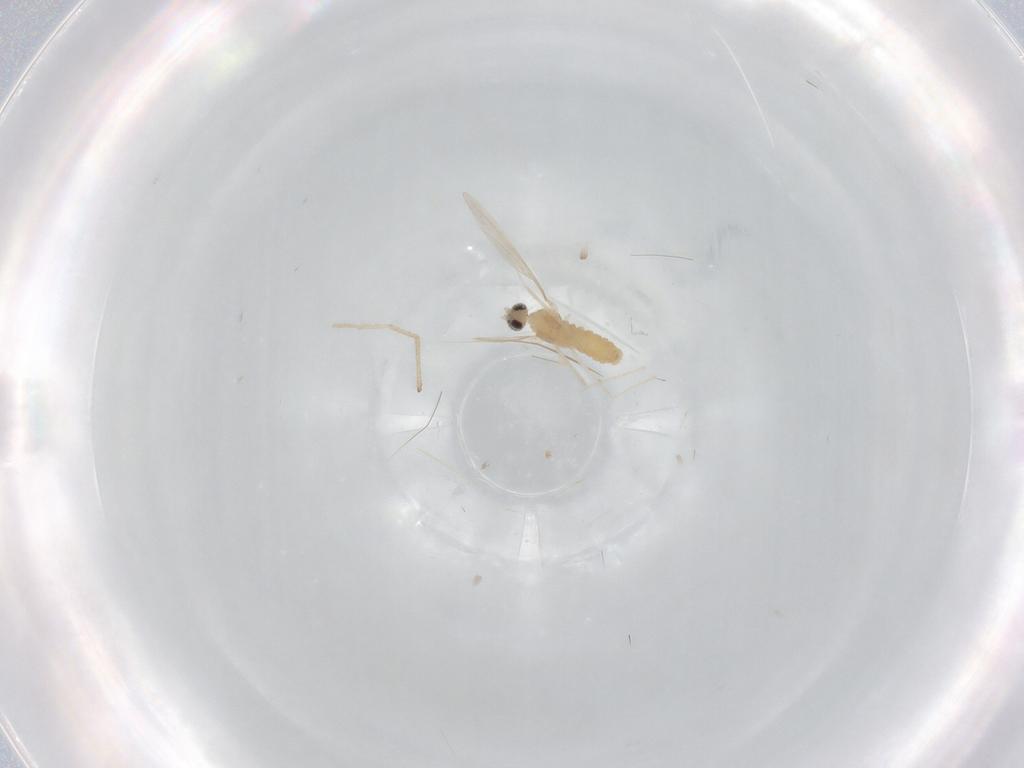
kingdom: Animalia
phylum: Arthropoda
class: Insecta
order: Diptera
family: Cecidomyiidae
